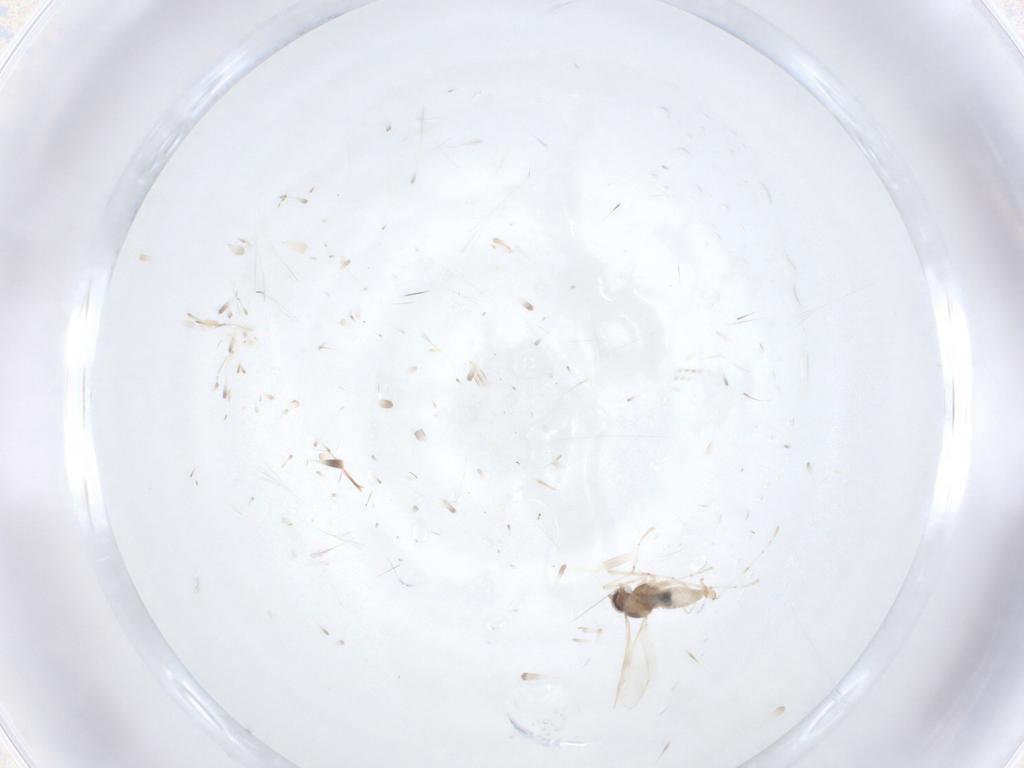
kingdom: Animalia
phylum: Arthropoda
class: Insecta
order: Diptera
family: Cecidomyiidae
